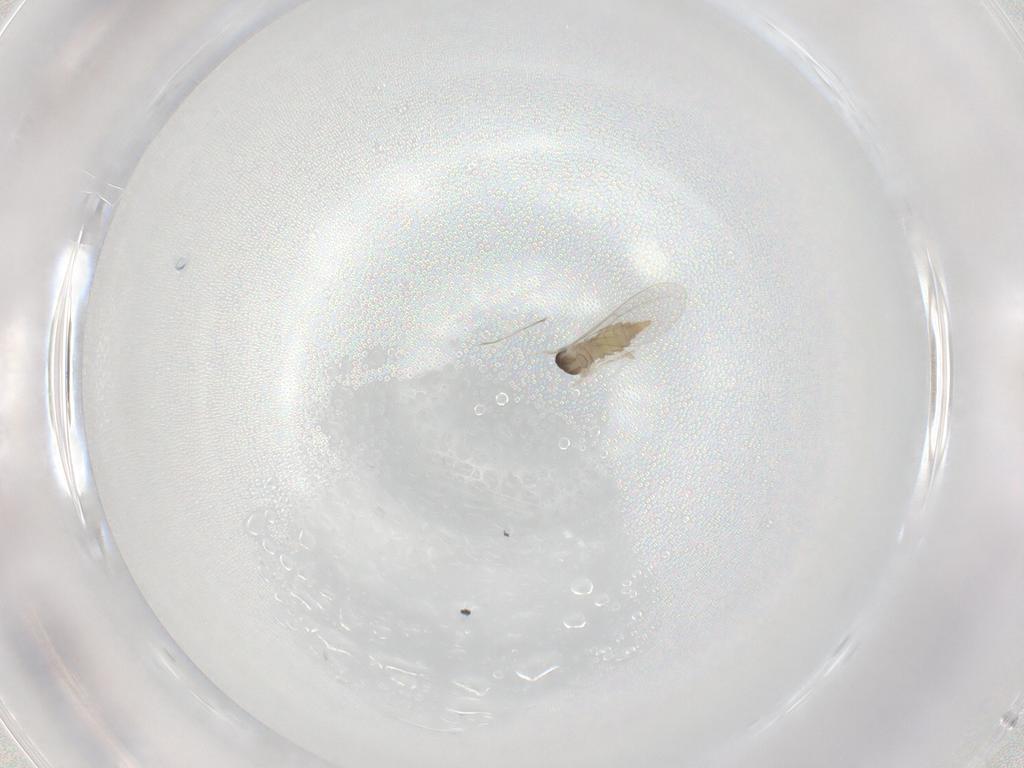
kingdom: Animalia
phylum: Arthropoda
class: Insecta
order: Diptera
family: Cecidomyiidae
